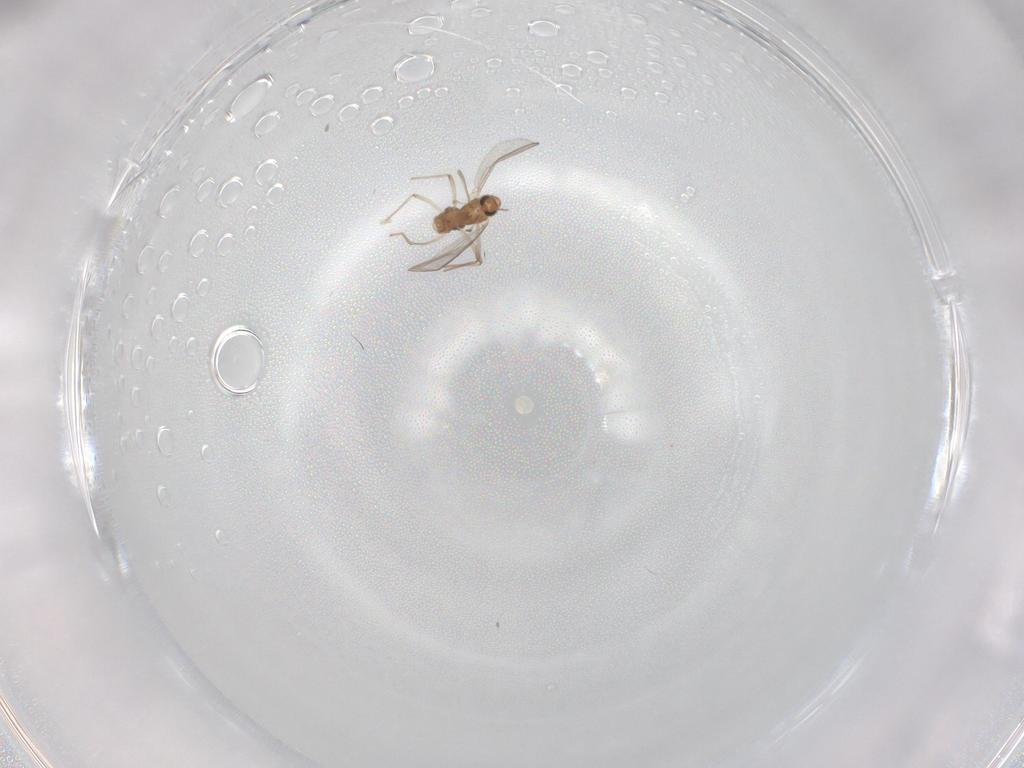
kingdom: Animalia
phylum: Arthropoda
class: Insecta
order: Diptera
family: Chironomidae
